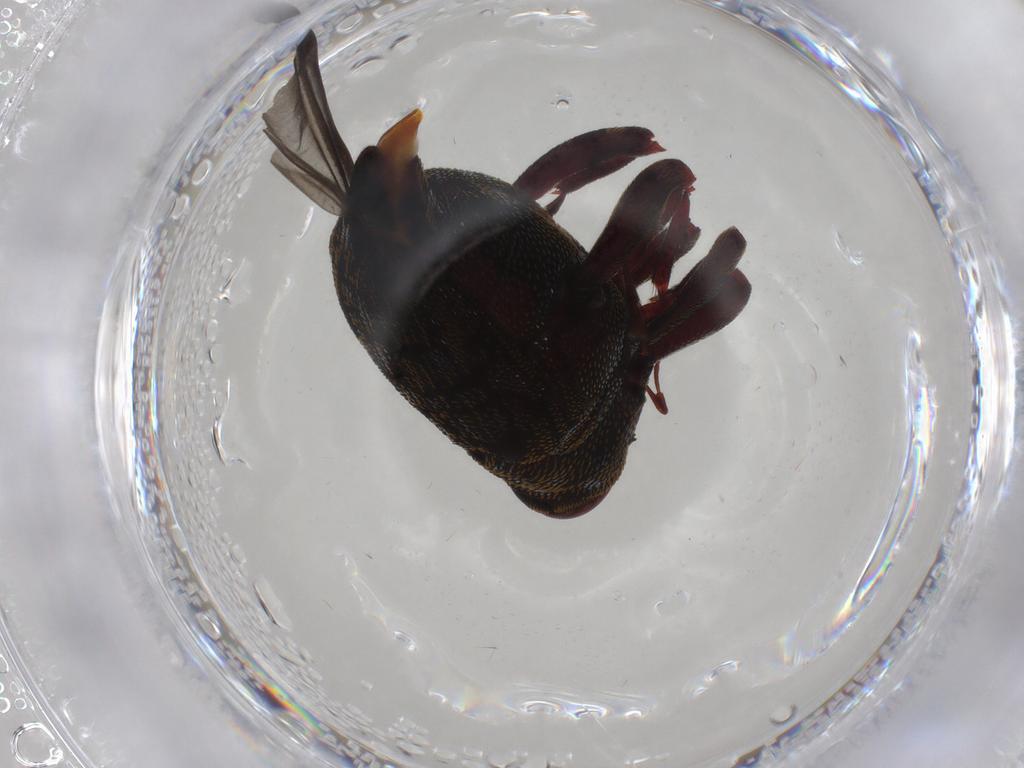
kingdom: Animalia
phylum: Arthropoda
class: Insecta
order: Coleoptera
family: Curculionidae
